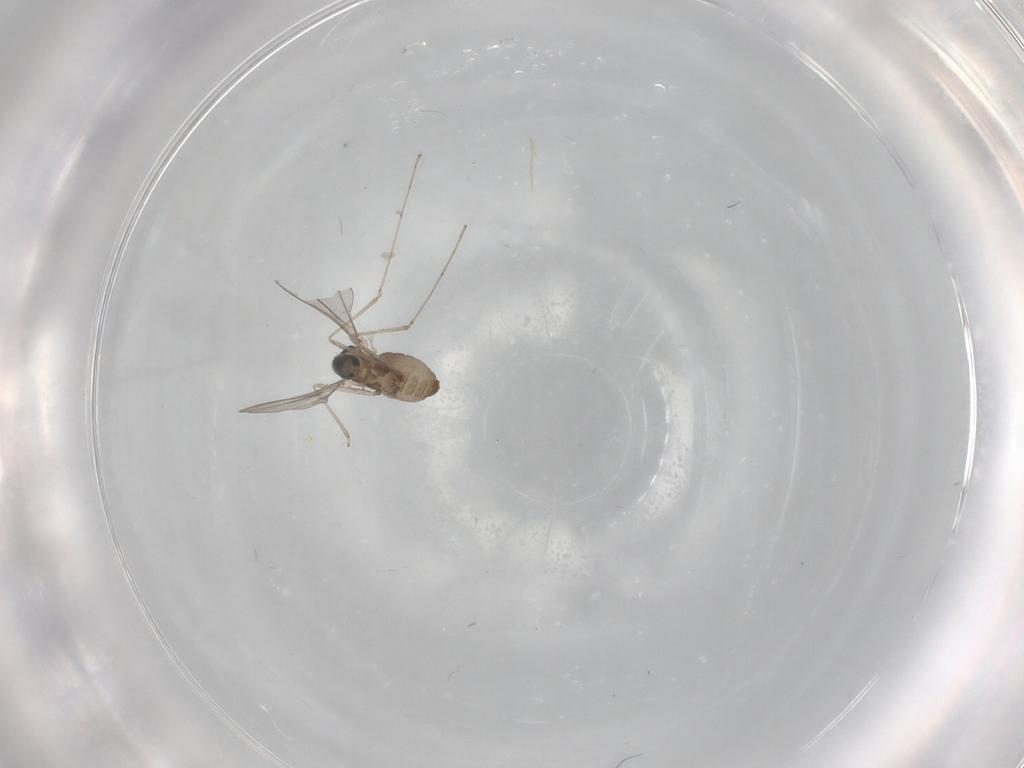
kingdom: Animalia
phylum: Arthropoda
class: Insecta
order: Diptera
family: Cecidomyiidae
